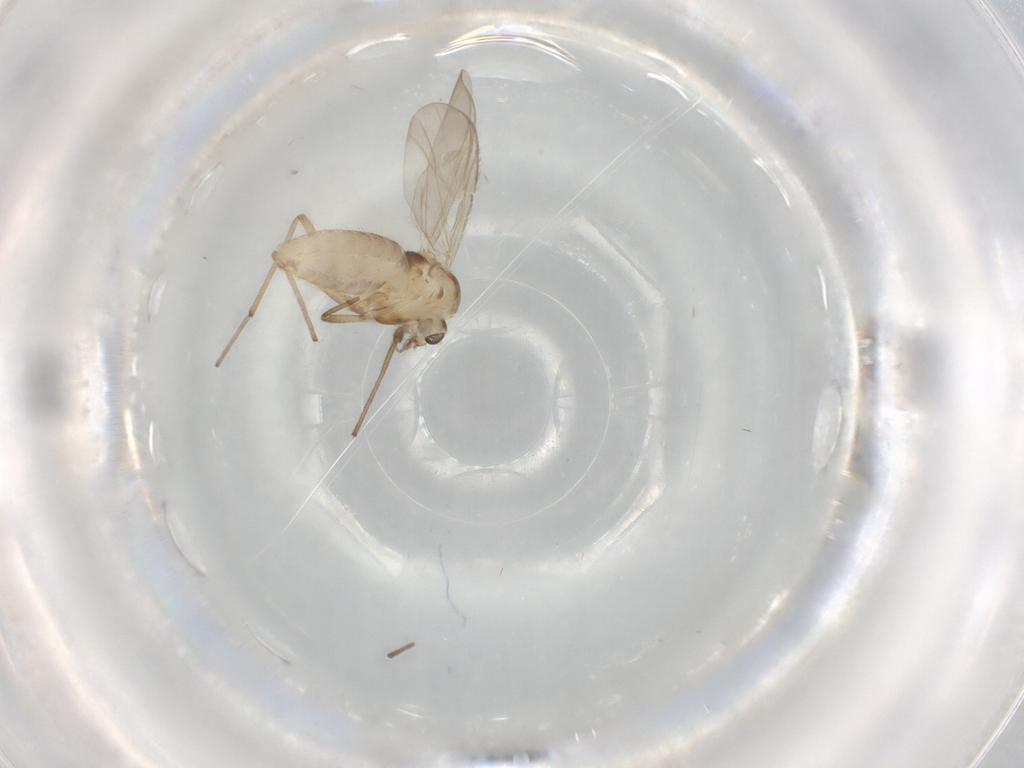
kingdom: Animalia
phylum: Arthropoda
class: Insecta
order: Diptera
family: Chironomidae
